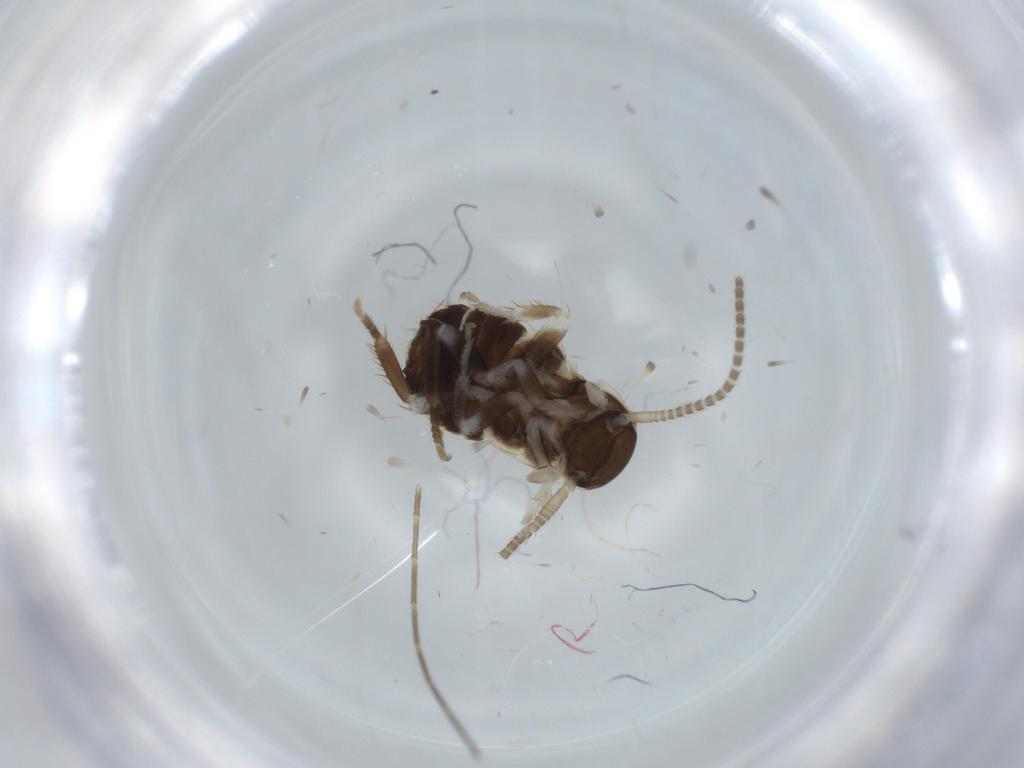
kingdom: Animalia
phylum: Arthropoda
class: Insecta
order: Blattodea
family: Ectobiidae
